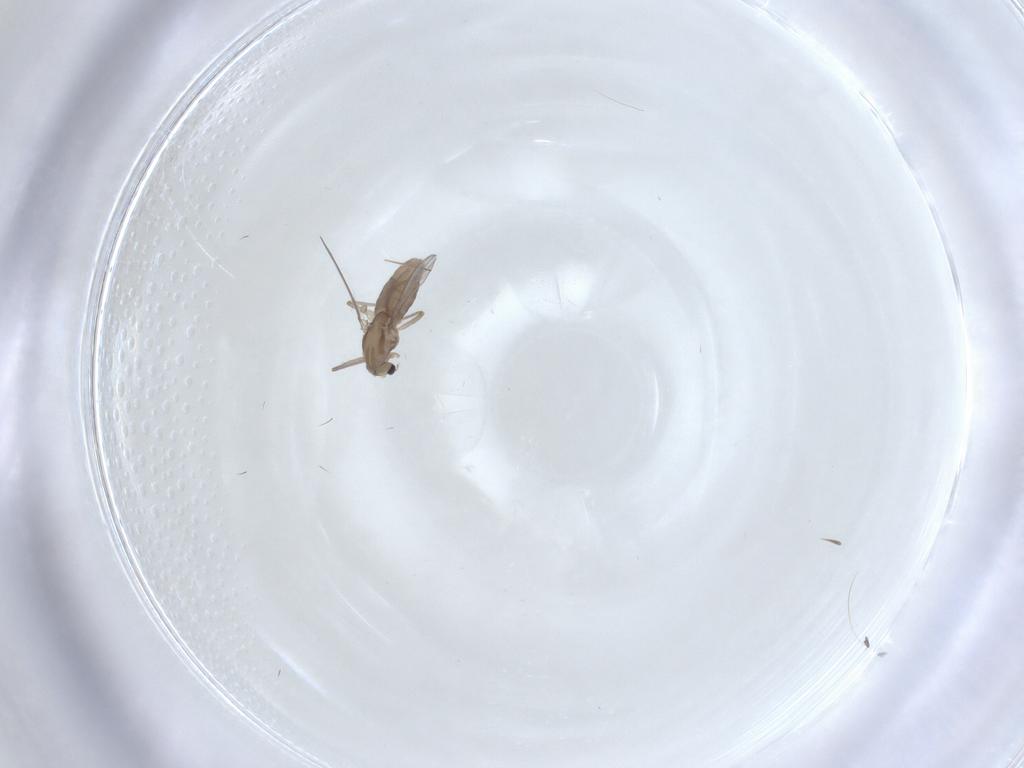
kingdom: Animalia
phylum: Arthropoda
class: Insecta
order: Diptera
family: Chironomidae
